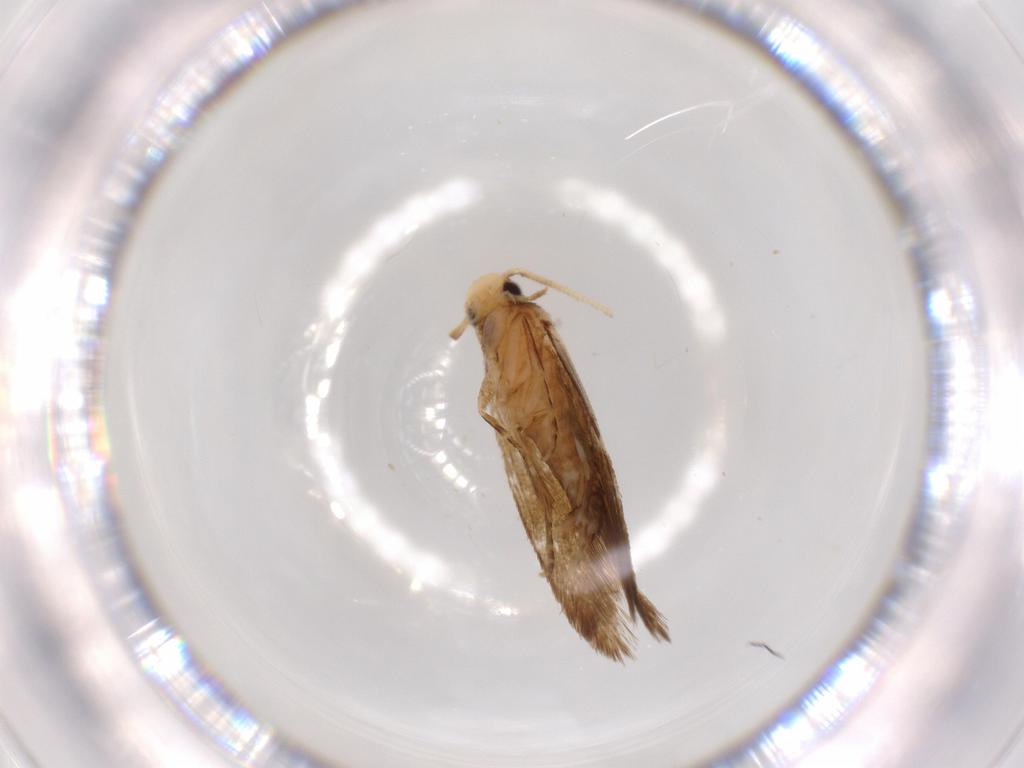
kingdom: Animalia
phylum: Arthropoda
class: Insecta
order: Lepidoptera
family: Tineidae
